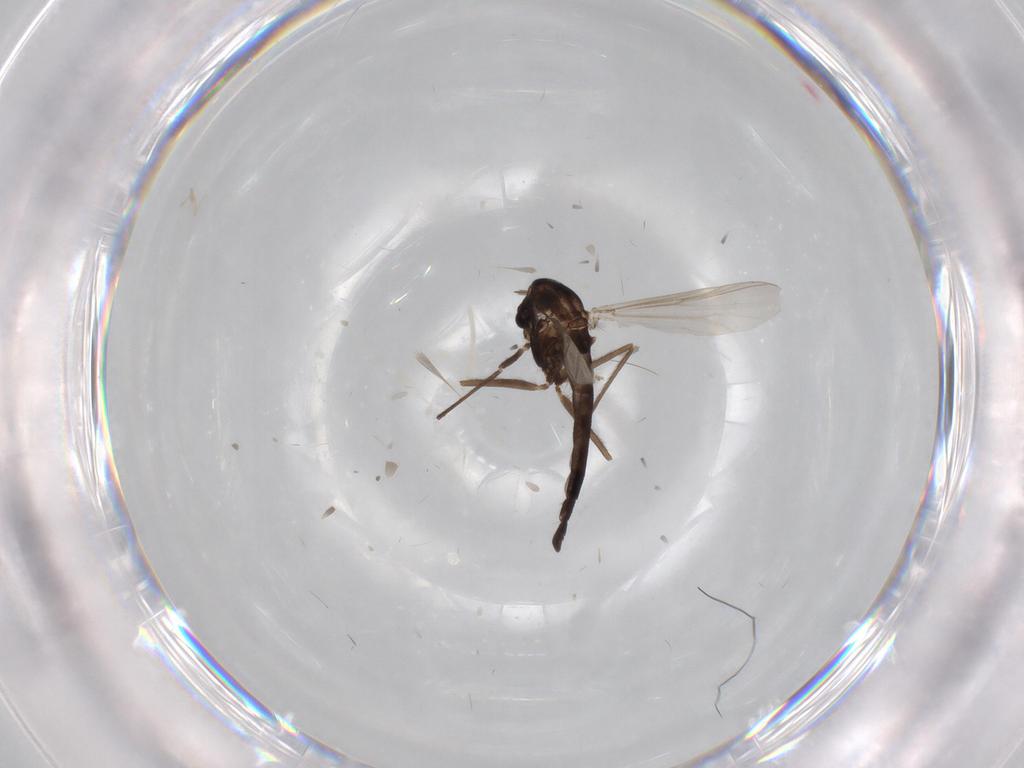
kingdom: Animalia
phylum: Arthropoda
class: Insecta
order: Diptera
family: Chironomidae
